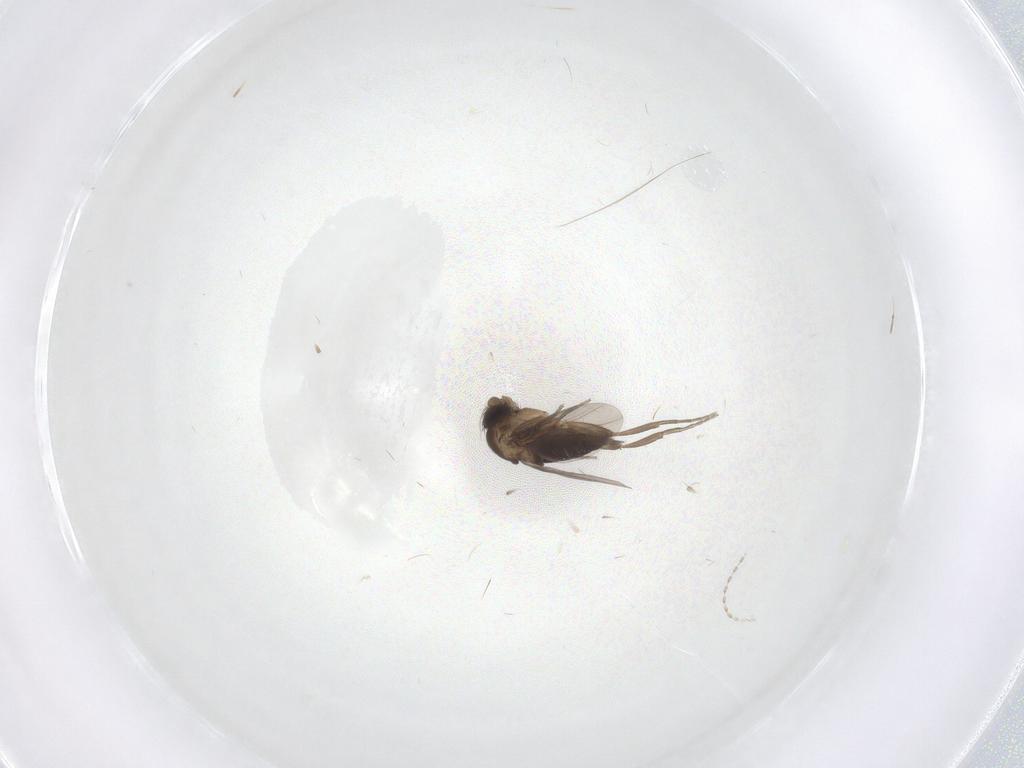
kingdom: Animalia
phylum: Arthropoda
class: Insecta
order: Diptera
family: Phoridae
